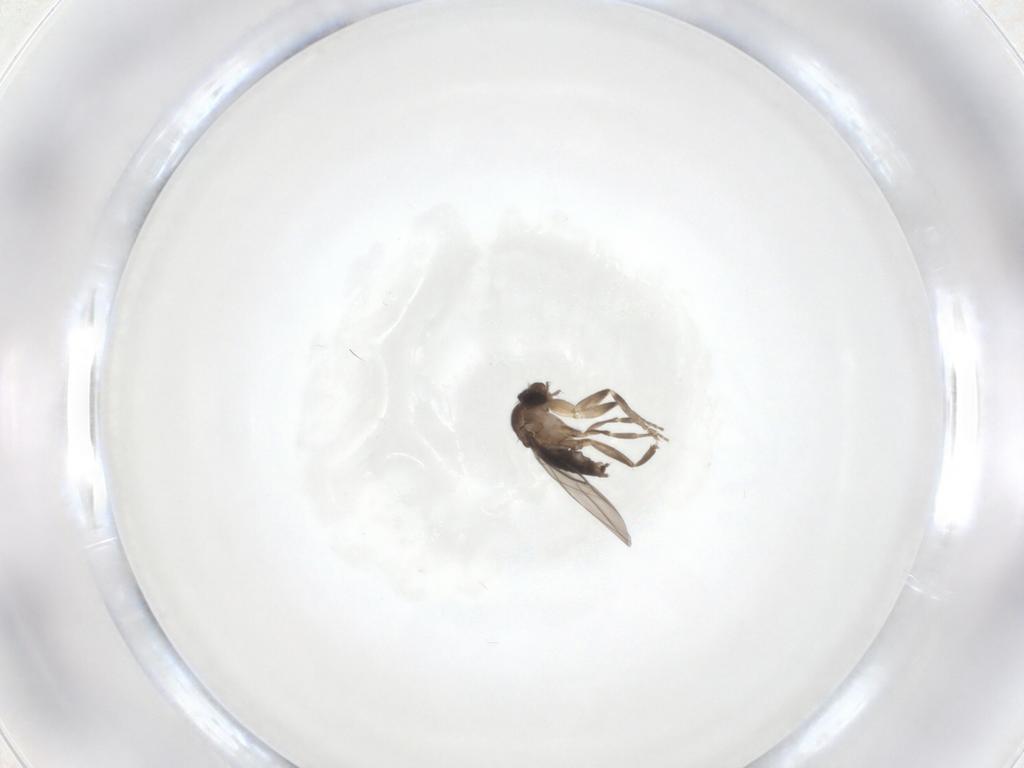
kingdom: Animalia
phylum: Arthropoda
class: Insecta
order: Diptera
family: Phoridae
